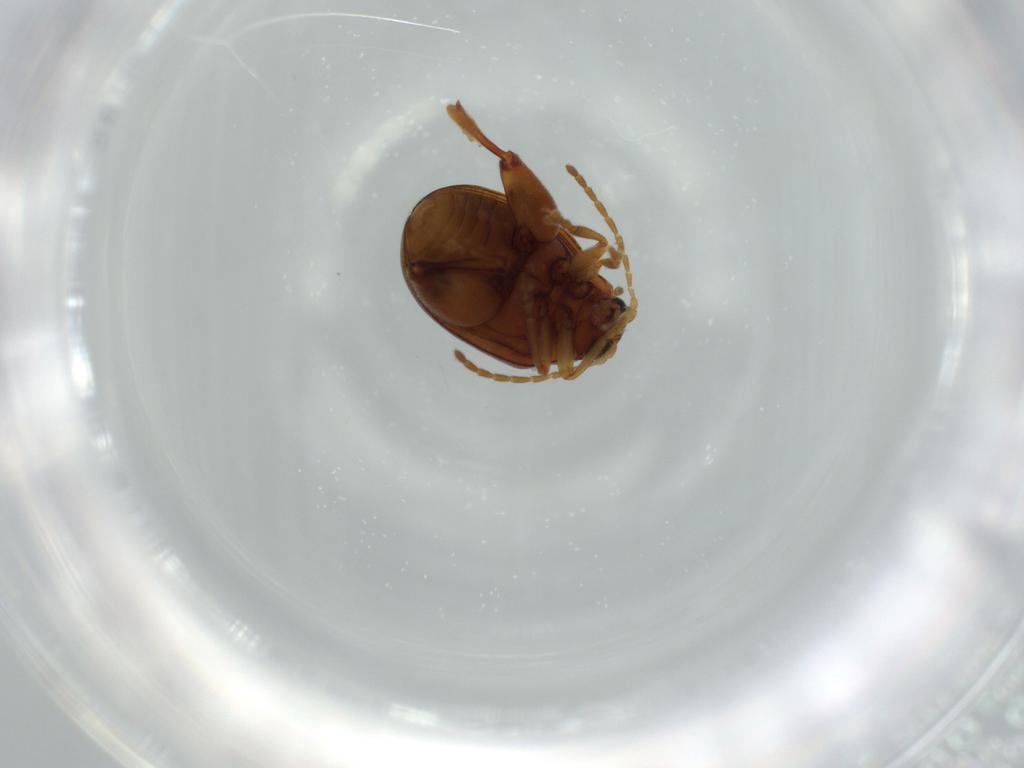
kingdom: Animalia
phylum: Arthropoda
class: Insecta
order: Coleoptera
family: Chrysomelidae
